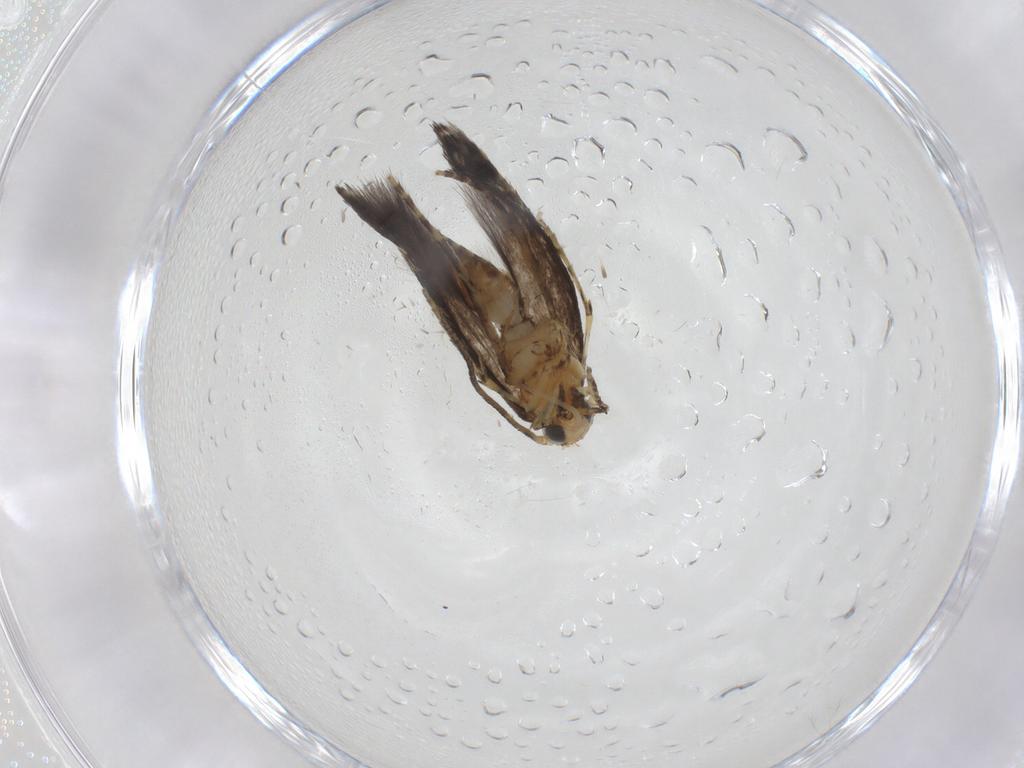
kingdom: Animalia
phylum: Arthropoda
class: Insecta
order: Lepidoptera
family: Argyresthiidae
